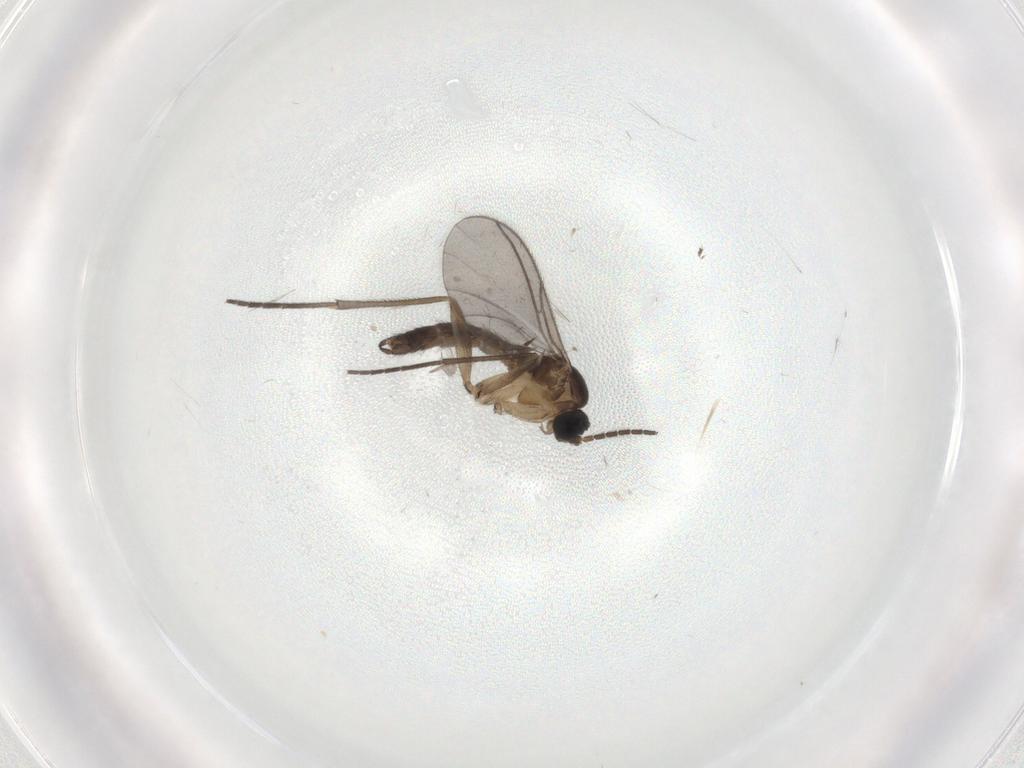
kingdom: Animalia
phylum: Arthropoda
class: Insecta
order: Diptera
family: Sciaridae
